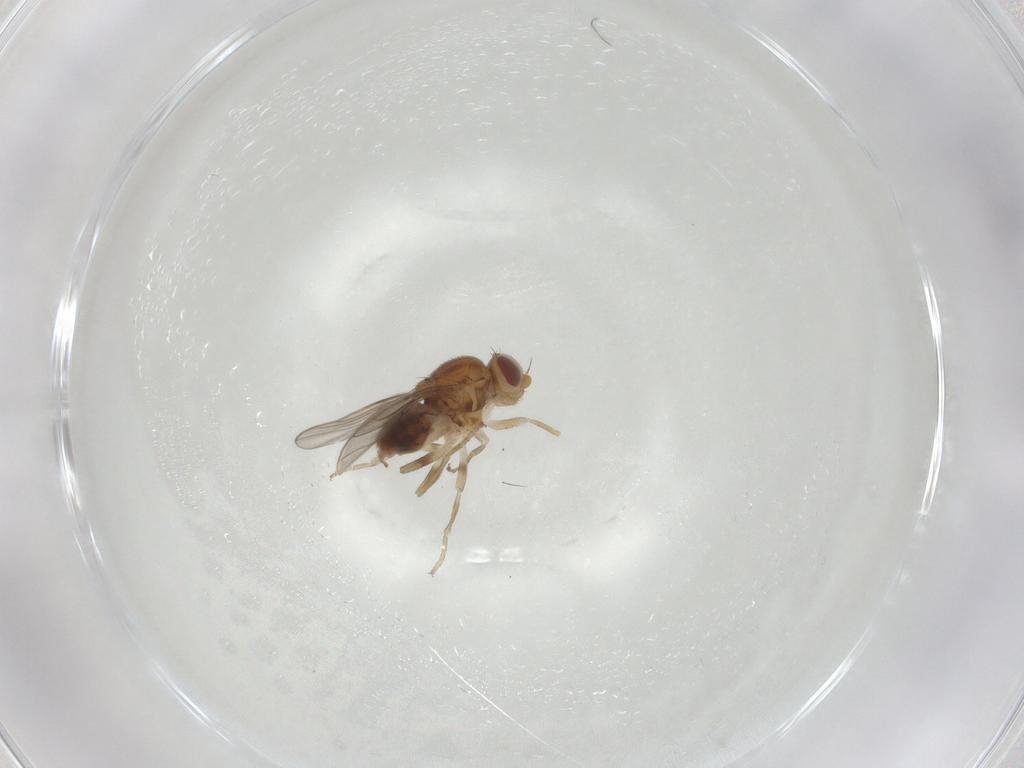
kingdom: Animalia
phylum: Arthropoda
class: Insecta
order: Diptera
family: Chloropidae
